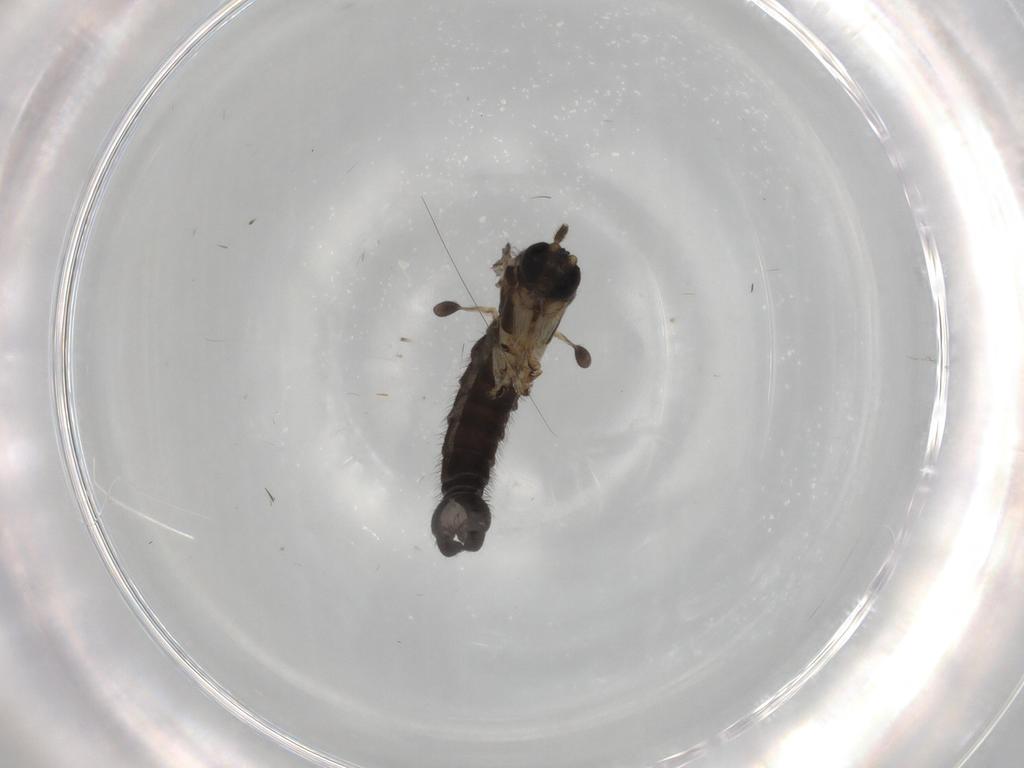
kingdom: Animalia
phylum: Arthropoda
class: Insecta
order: Diptera
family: Sciaridae
